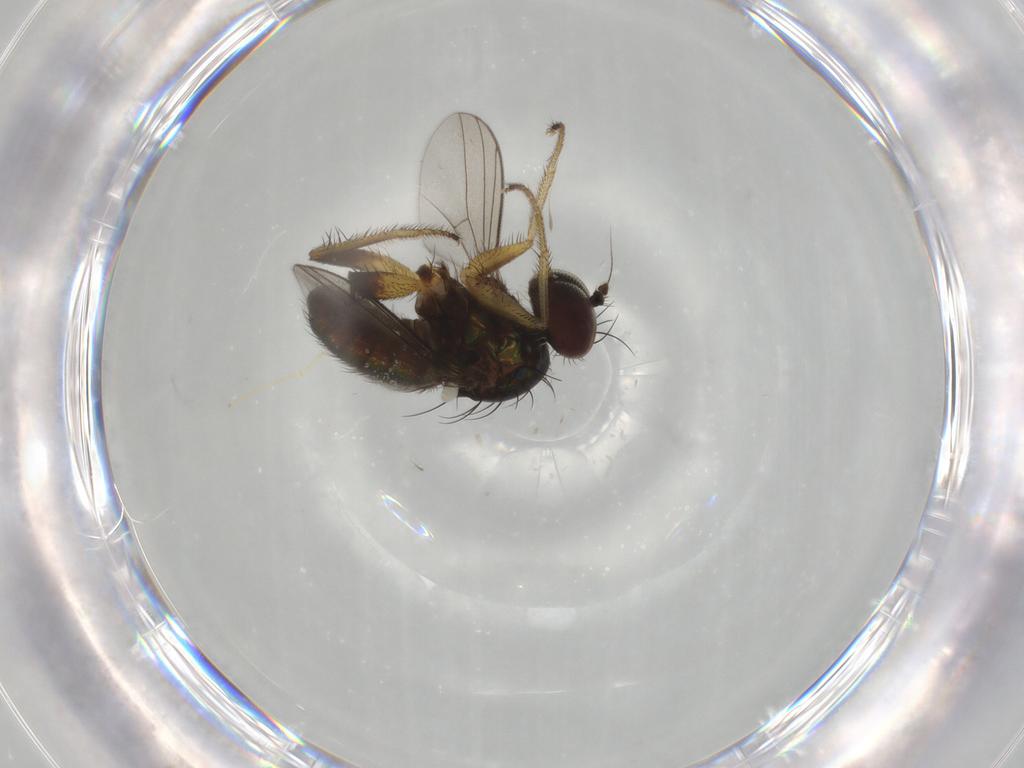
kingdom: Animalia
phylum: Arthropoda
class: Insecta
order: Diptera
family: Dolichopodidae
